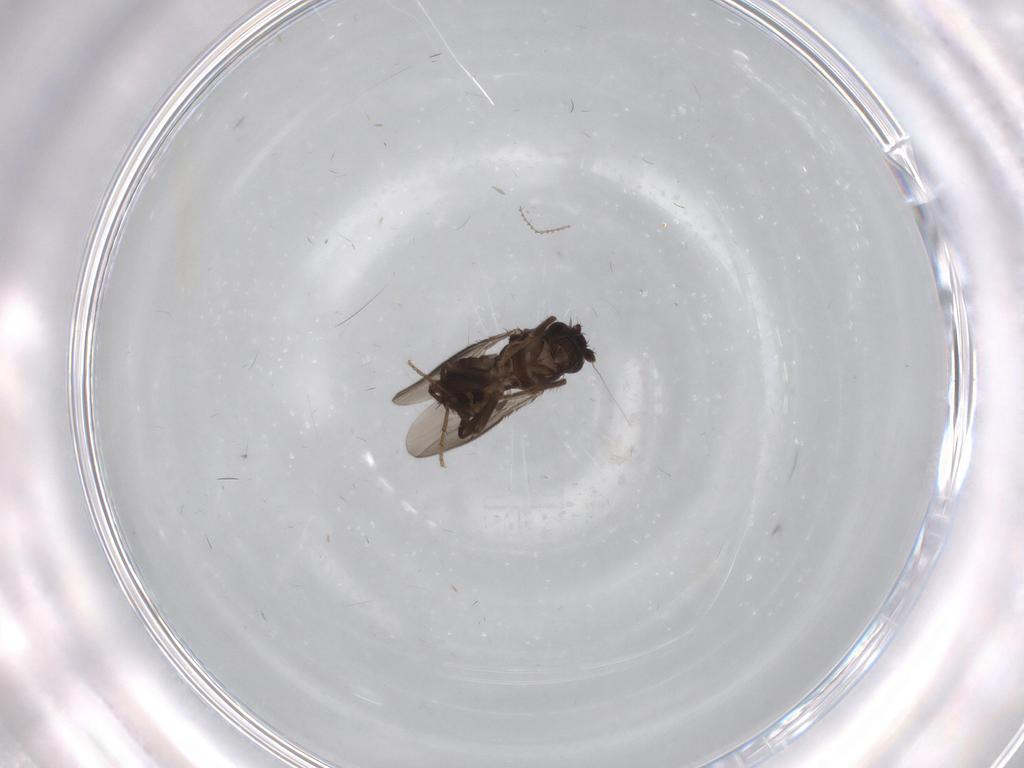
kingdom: Animalia
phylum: Arthropoda
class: Insecta
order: Diptera
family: Sphaeroceridae
